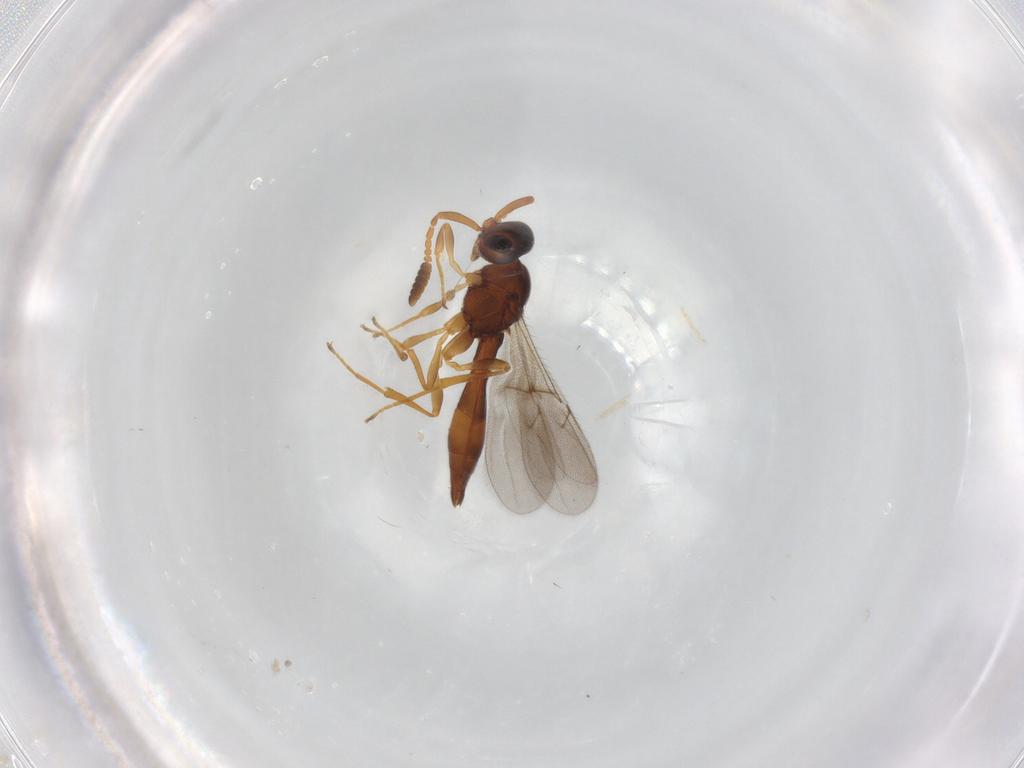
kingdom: Animalia
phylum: Arthropoda
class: Insecta
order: Hymenoptera
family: Scelionidae
